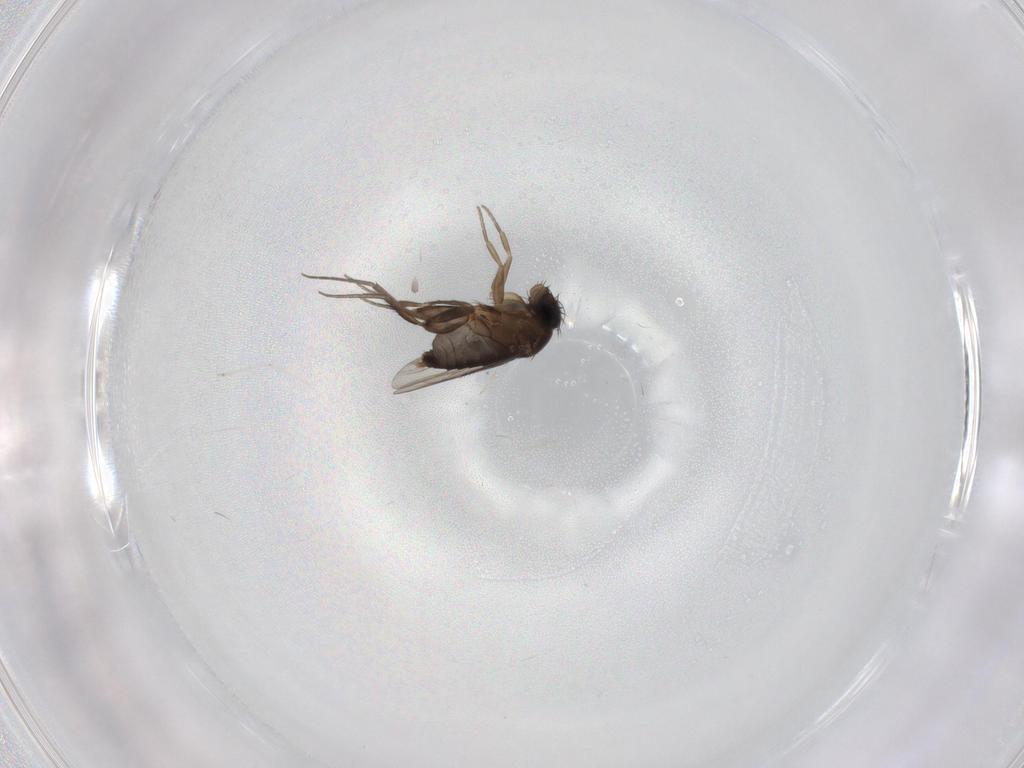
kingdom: Animalia
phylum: Arthropoda
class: Insecta
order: Diptera
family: Phoridae
